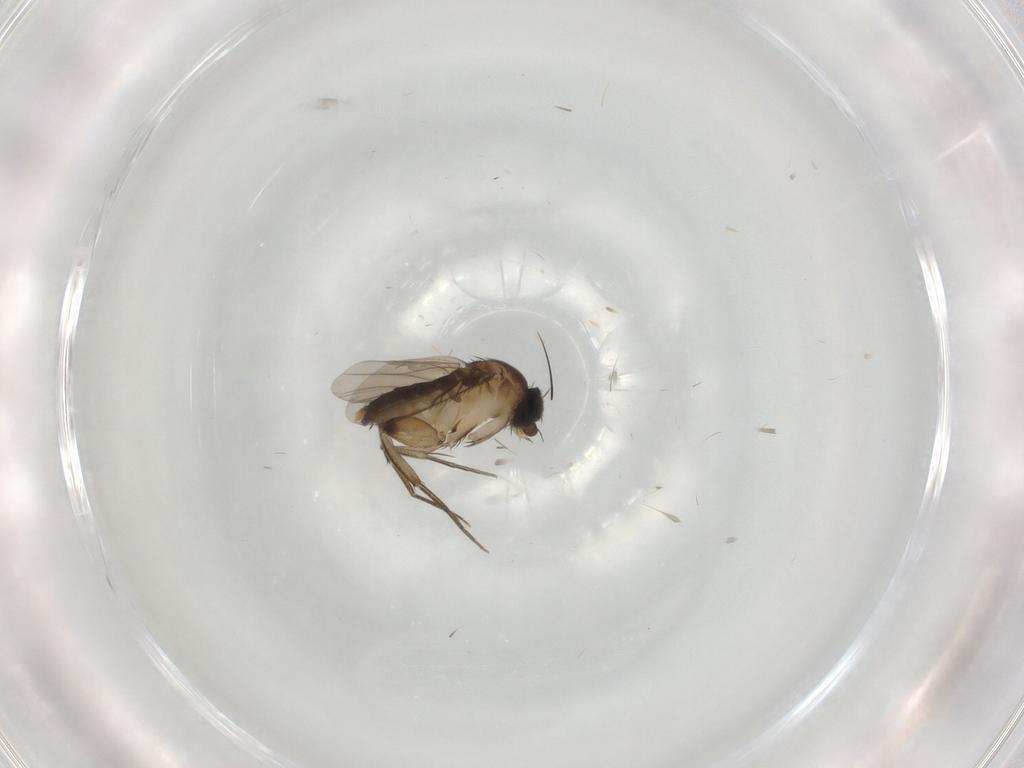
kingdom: Animalia
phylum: Arthropoda
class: Insecta
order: Diptera
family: Phoridae
